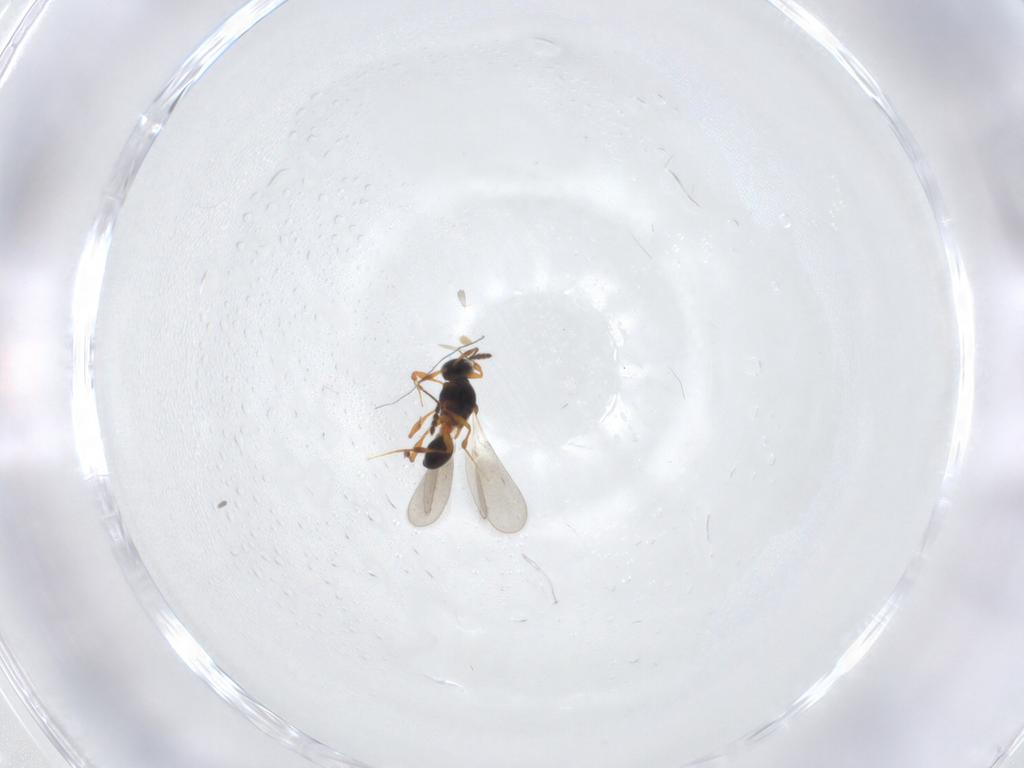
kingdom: Animalia
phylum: Arthropoda
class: Insecta
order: Hymenoptera
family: Platygastridae
